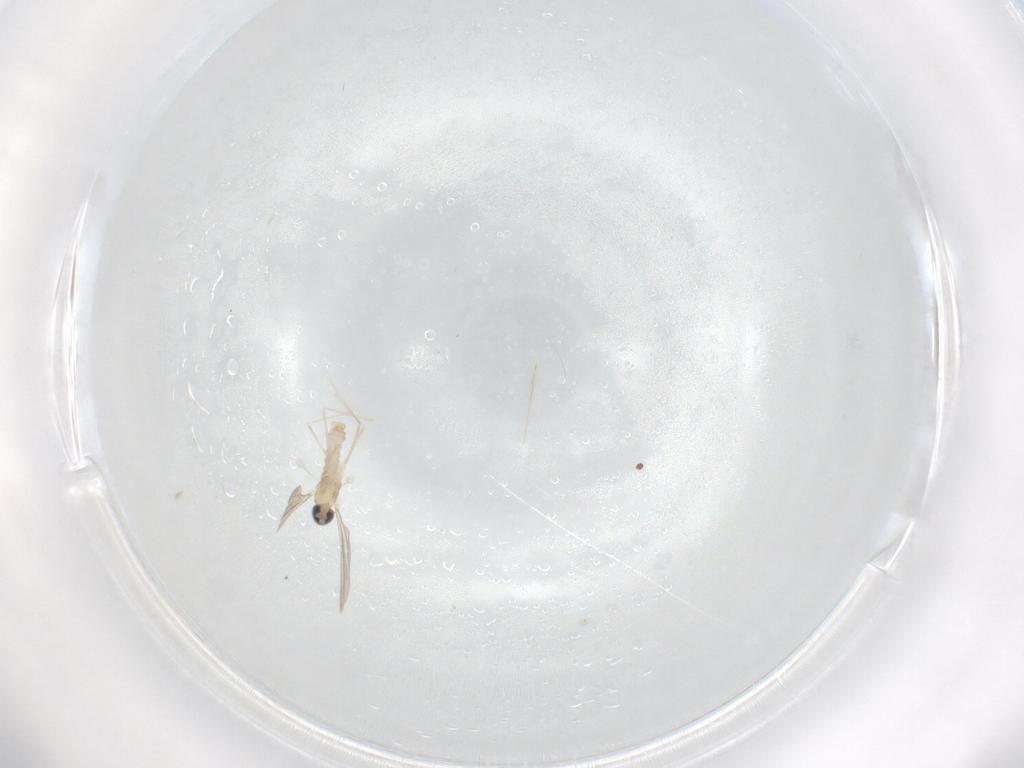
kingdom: Animalia
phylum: Arthropoda
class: Insecta
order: Diptera
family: Cecidomyiidae
